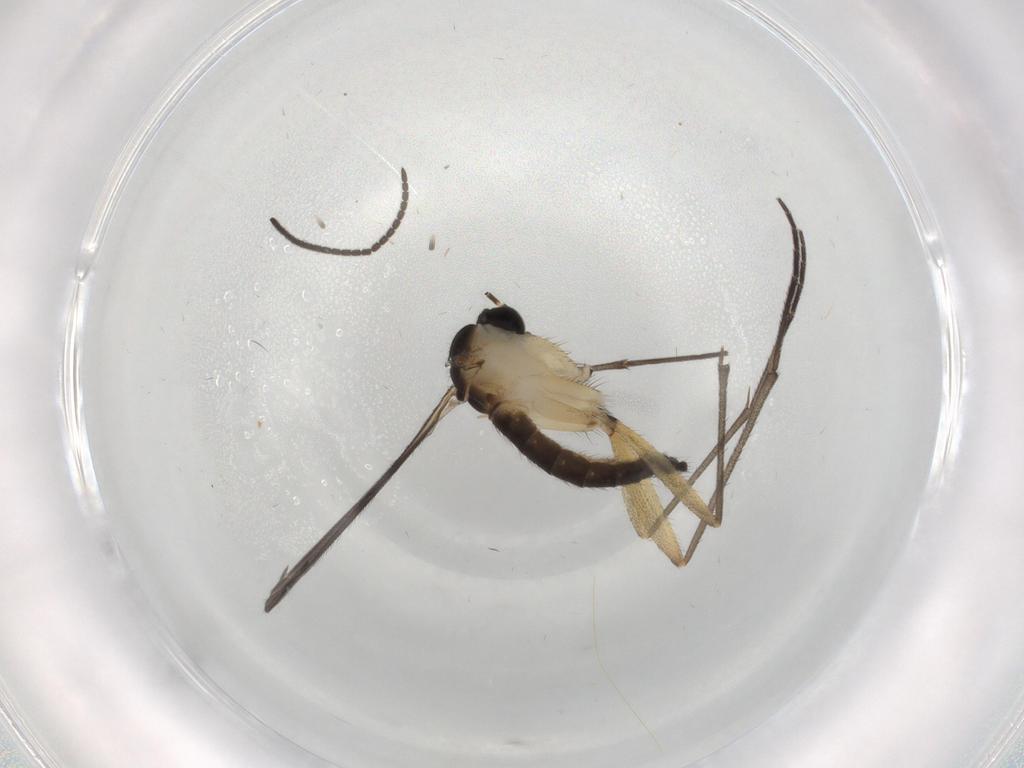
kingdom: Animalia
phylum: Arthropoda
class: Insecta
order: Diptera
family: Sciaridae
